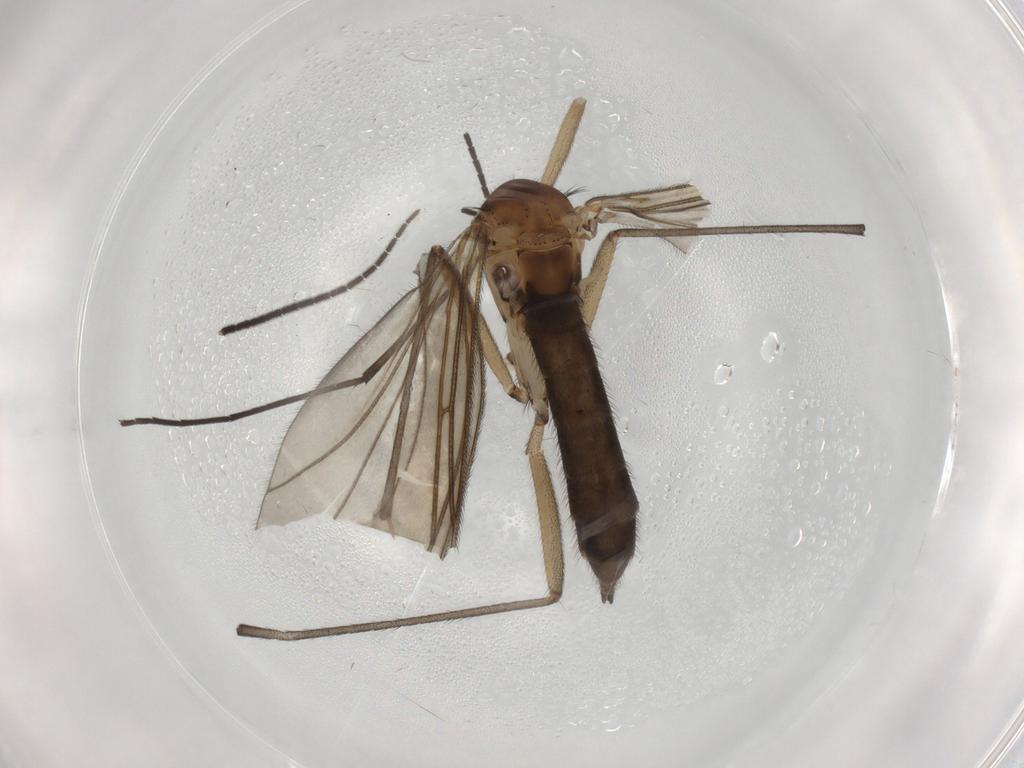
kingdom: Animalia
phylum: Arthropoda
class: Insecta
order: Diptera
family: Sciaridae
